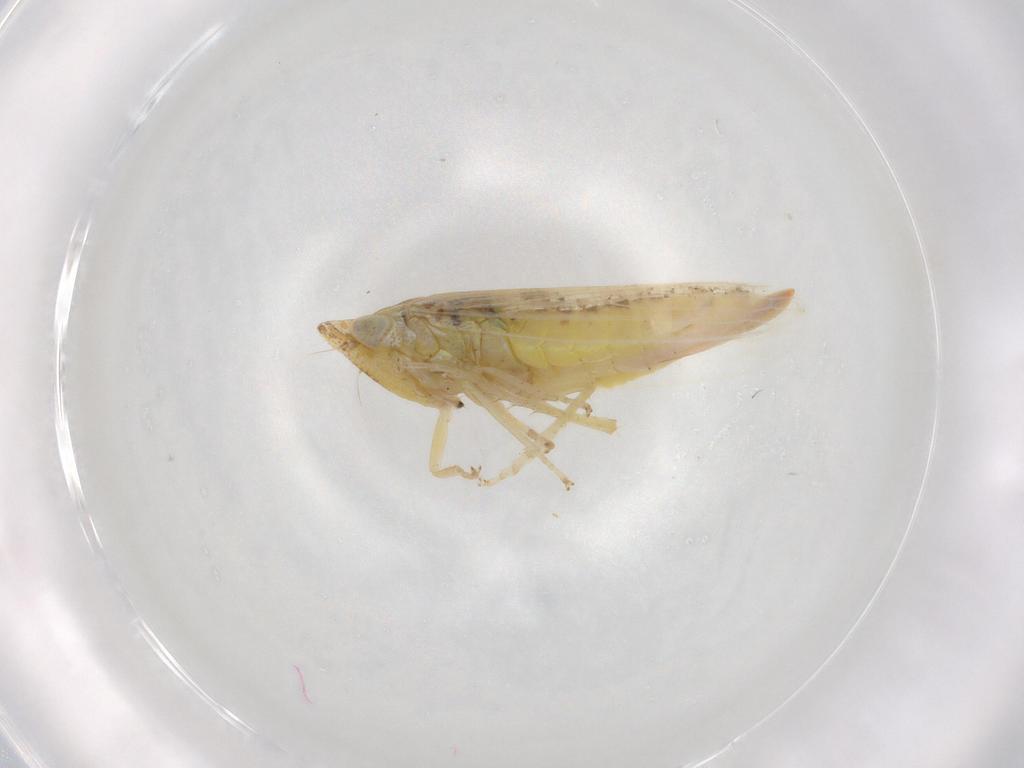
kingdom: Animalia
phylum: Arthropoda
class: Insecta
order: Hemiptera
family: Cicadellidae
